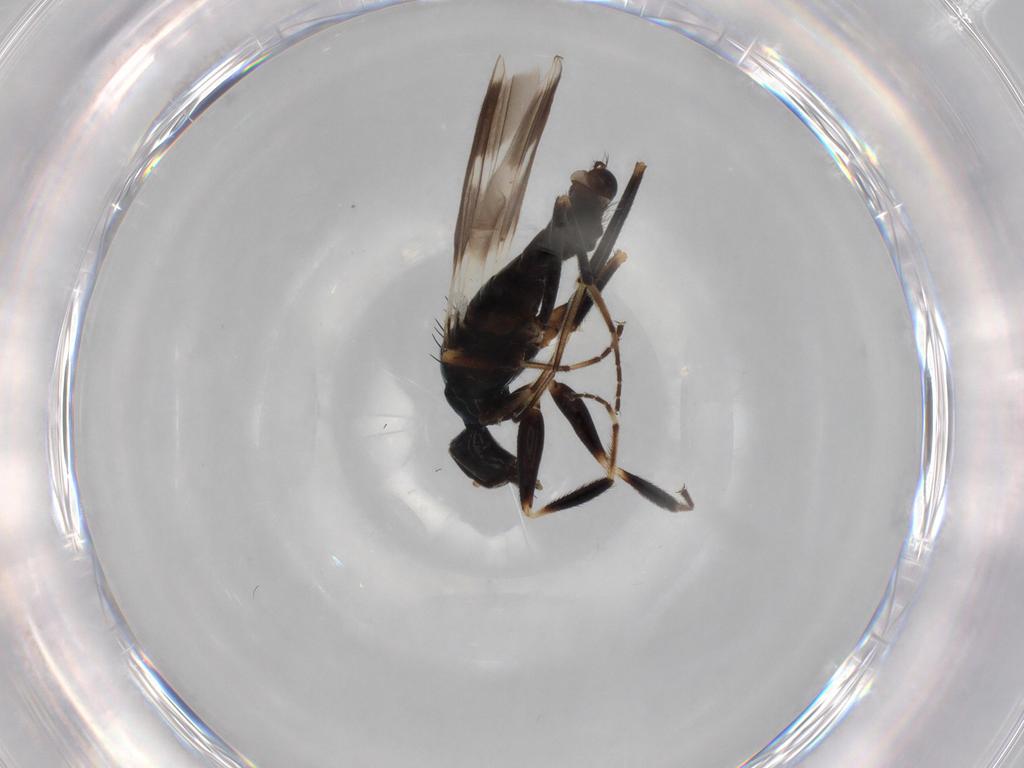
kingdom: Animalia
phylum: Arthropoda
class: Insecta
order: Diptera
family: Hybotidae
